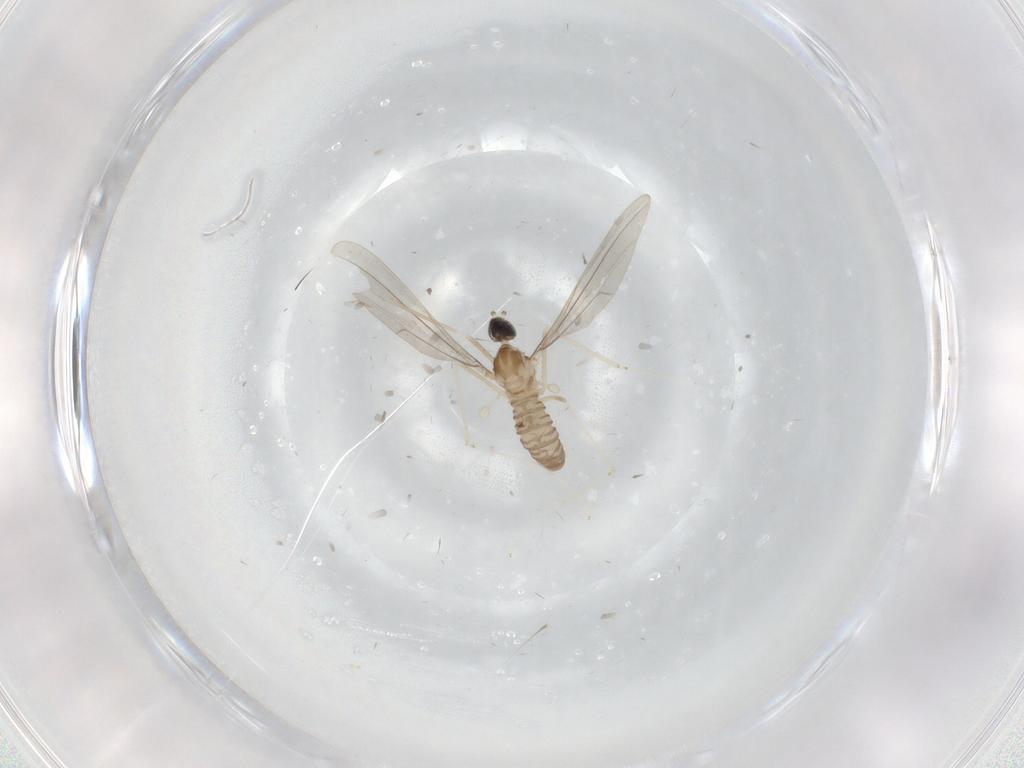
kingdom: Animalia
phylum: Arthropoda
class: Insecta
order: Diptera
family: Cecidomyiidae
